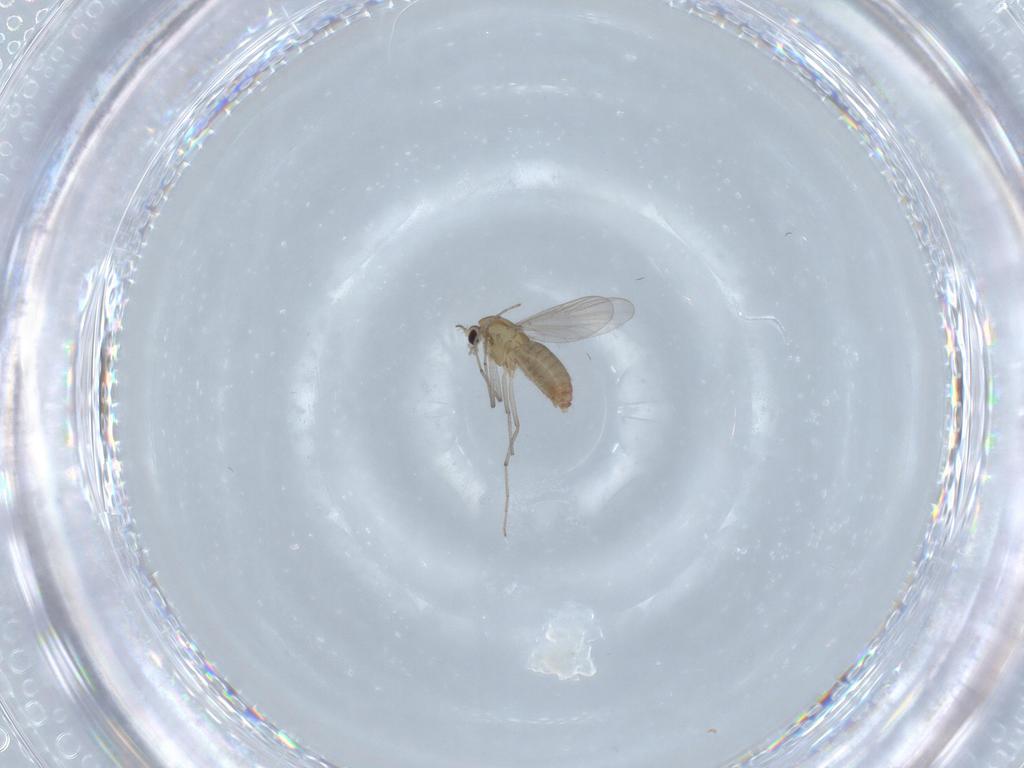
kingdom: Animalia
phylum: Arthropoda
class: Insecta
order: Diptera
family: Chironomidae
